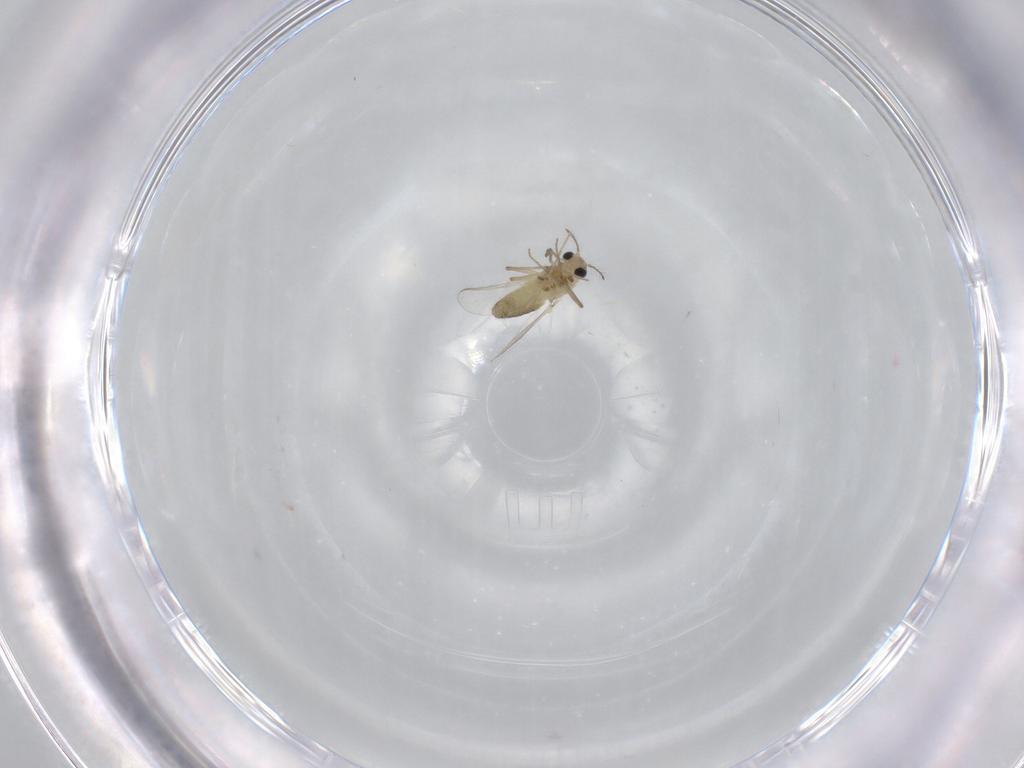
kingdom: Animalia
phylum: Arthropoda
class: Insecta
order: Diptera
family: Chironomidae
